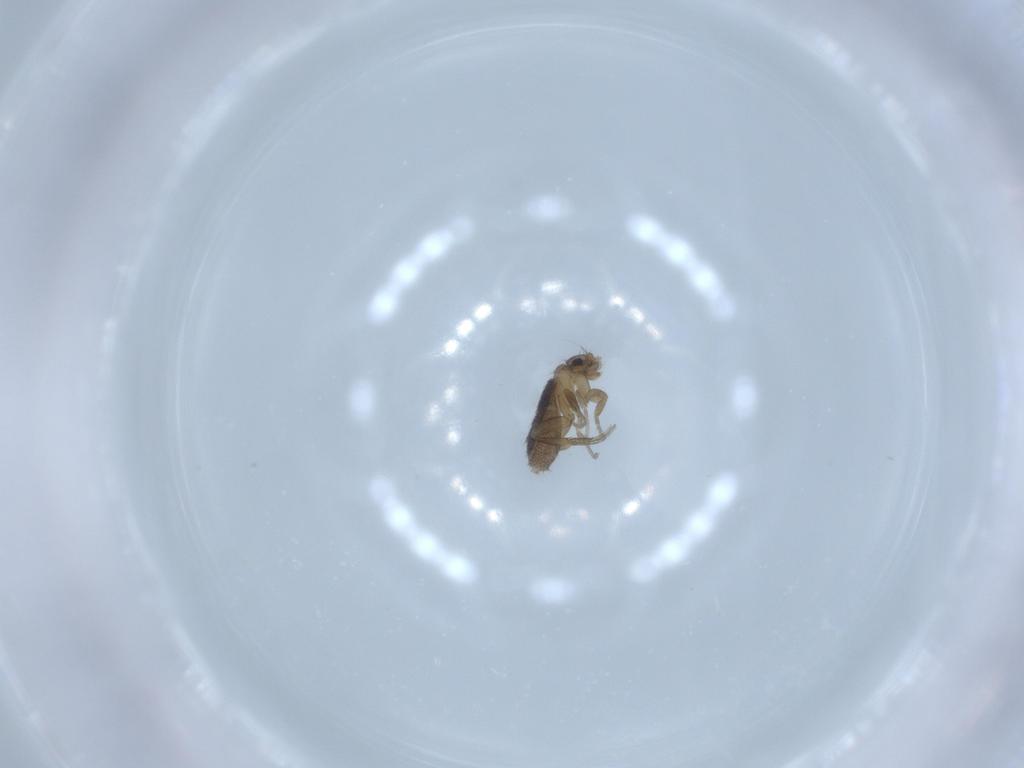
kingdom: Animalia
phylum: Arthropoda
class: Insecta
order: Diptera
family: Phoridae
